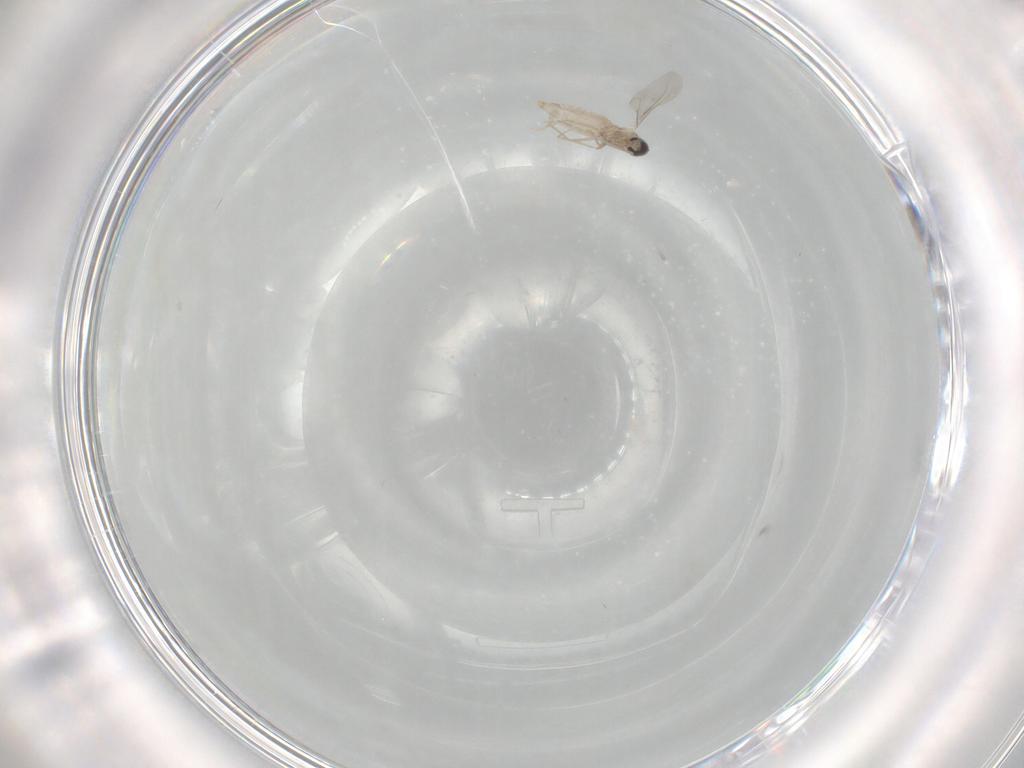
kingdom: Animalia
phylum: Arthropoda
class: Insecta
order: Diptera
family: Cecidomyiidae
